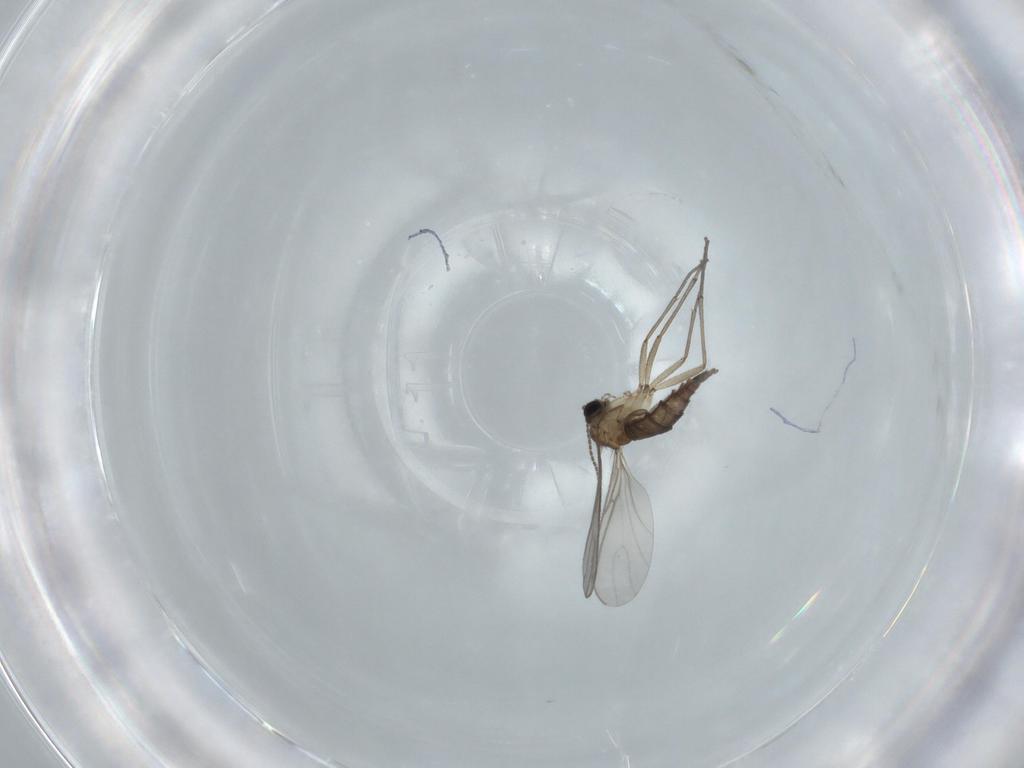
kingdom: Animalia
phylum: Arthropoda
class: Insecta
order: Diptera
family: Sciaridae
